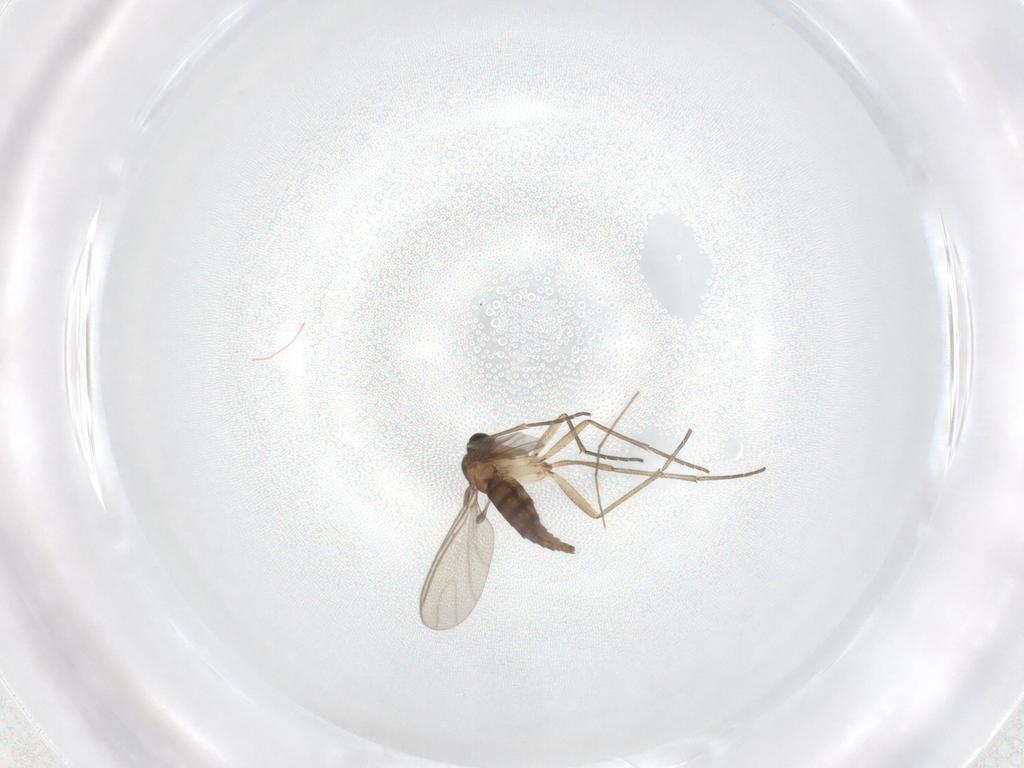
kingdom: Animalia
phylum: Arthropoda
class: Insecta
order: Diptera
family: Sciaridae
